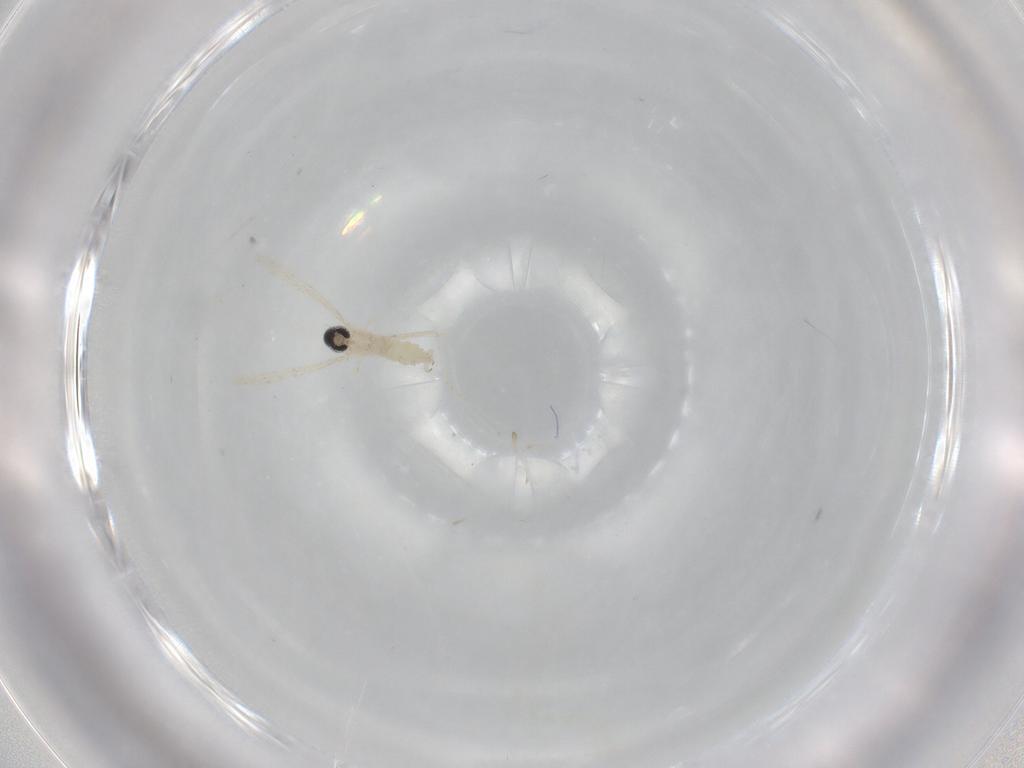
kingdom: Animalia
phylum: Arthropoda
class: Insecta
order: Diptera
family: Cecidomyiidae
